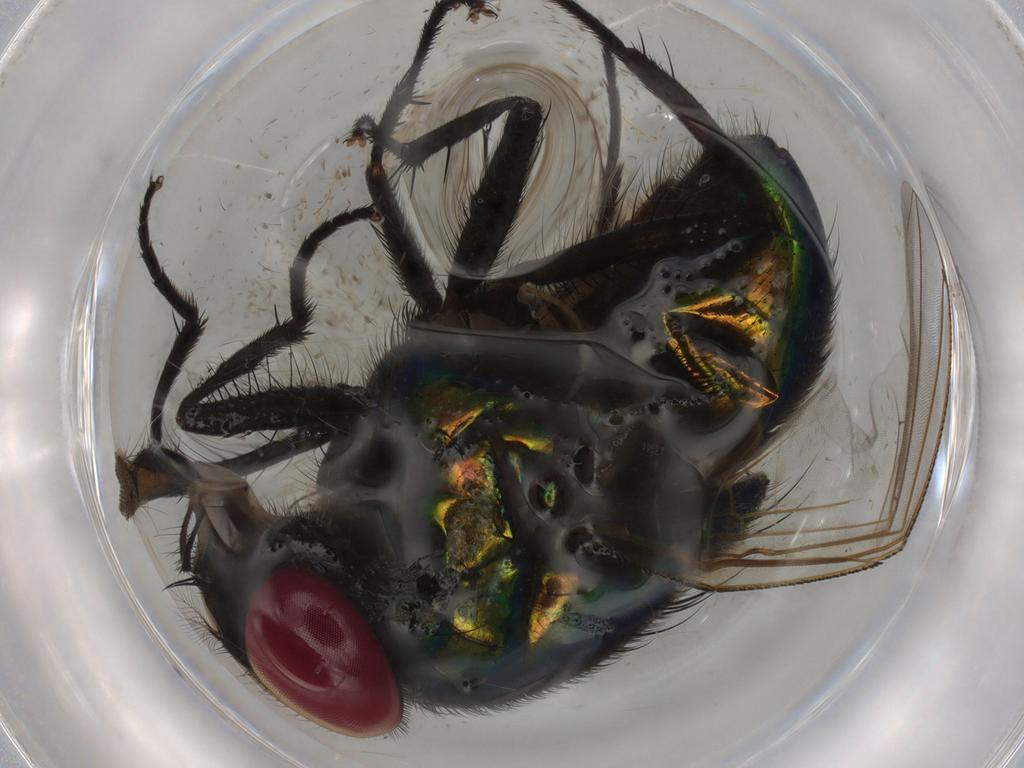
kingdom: Animalia
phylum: Arthropoda
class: Insecta
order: Diptera
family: Muscidae
